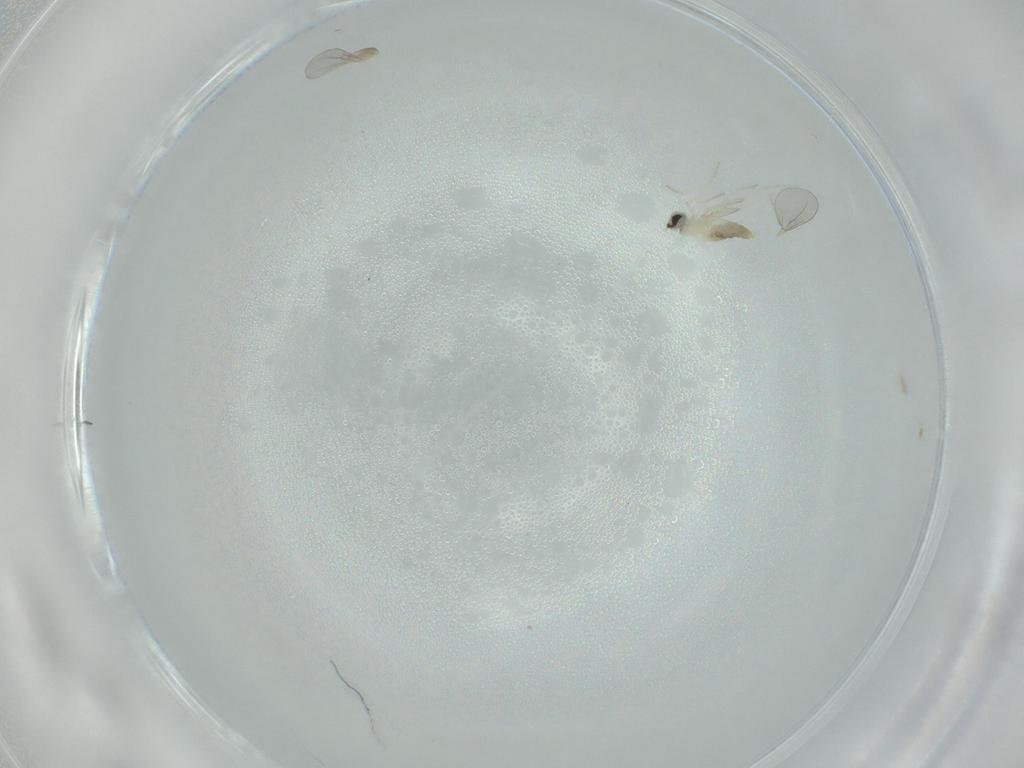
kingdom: Animalia
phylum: Arthropoda
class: Insecta
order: Diptera
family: Cecidomyiidae
